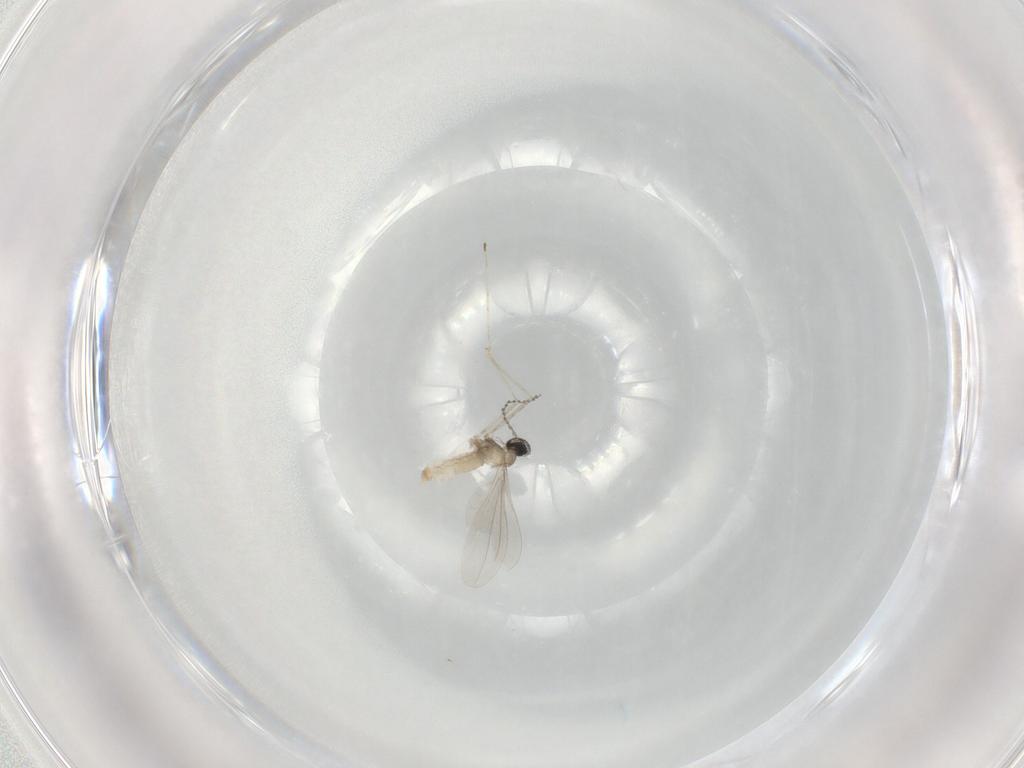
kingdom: Animalia
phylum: Arthropoda
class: Insecta
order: Diptera
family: Cecidomyiidae
